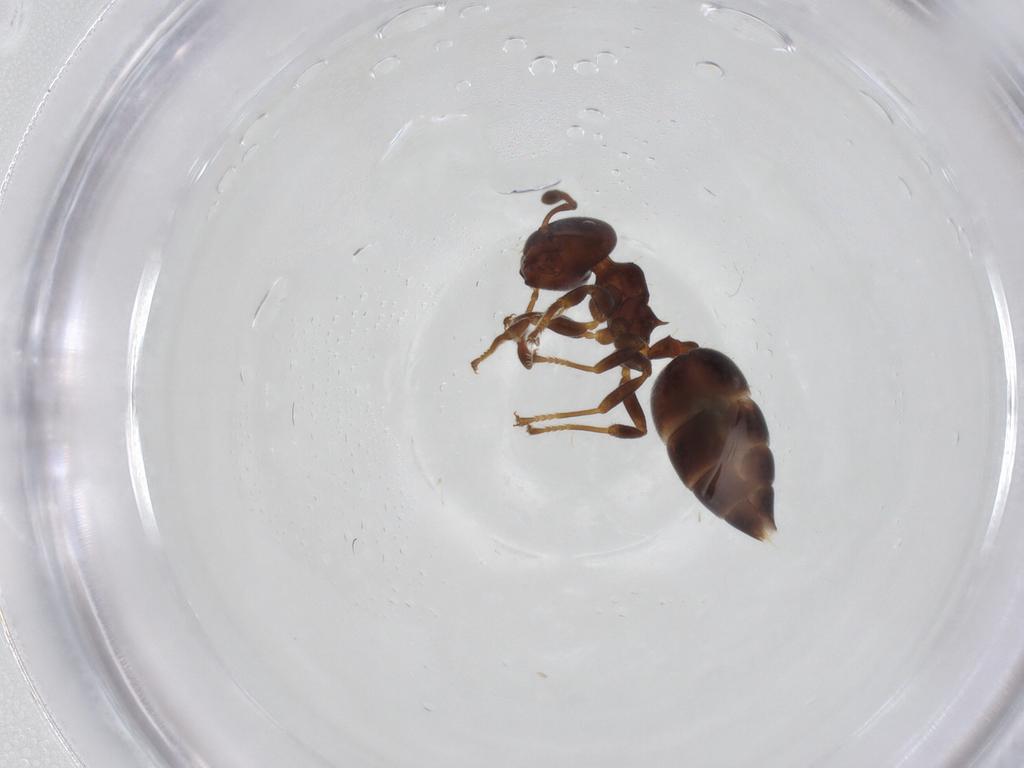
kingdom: Animalia
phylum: Arthropoda
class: Insecta
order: Hymenoptera
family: Formicidae
